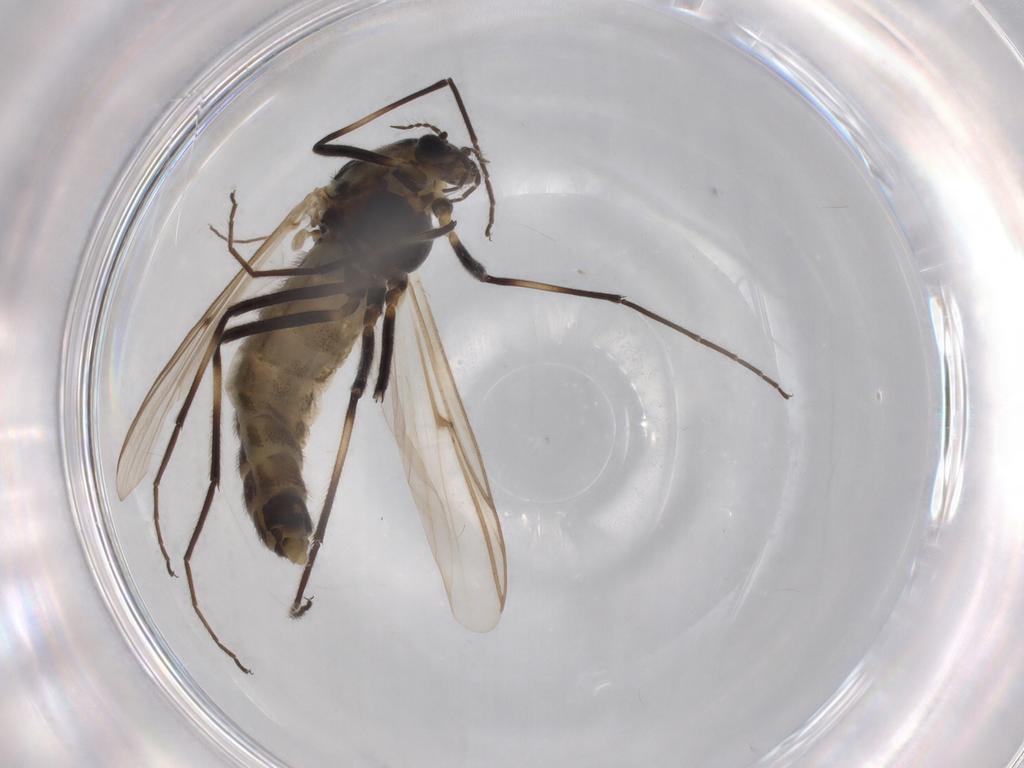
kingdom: Animalia
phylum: Arthropoda
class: Insecta
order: Diptera
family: Chironomidae
